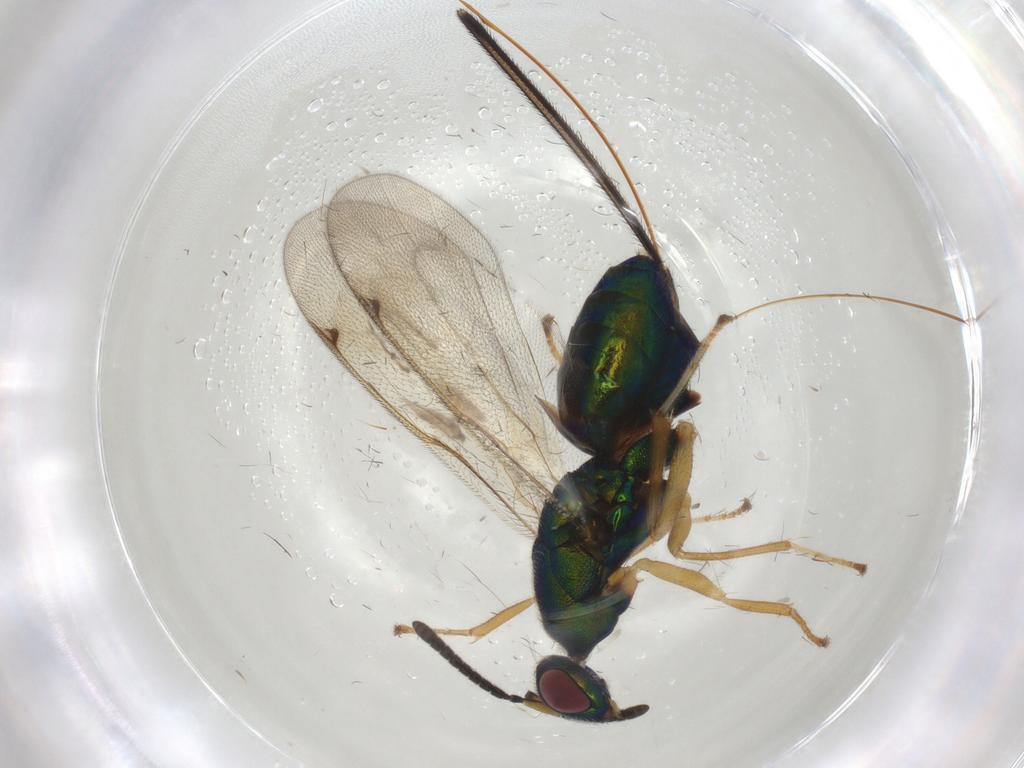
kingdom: Animalia
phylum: Arthropoda
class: Insecta
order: Hymenoptera
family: Torymidae
